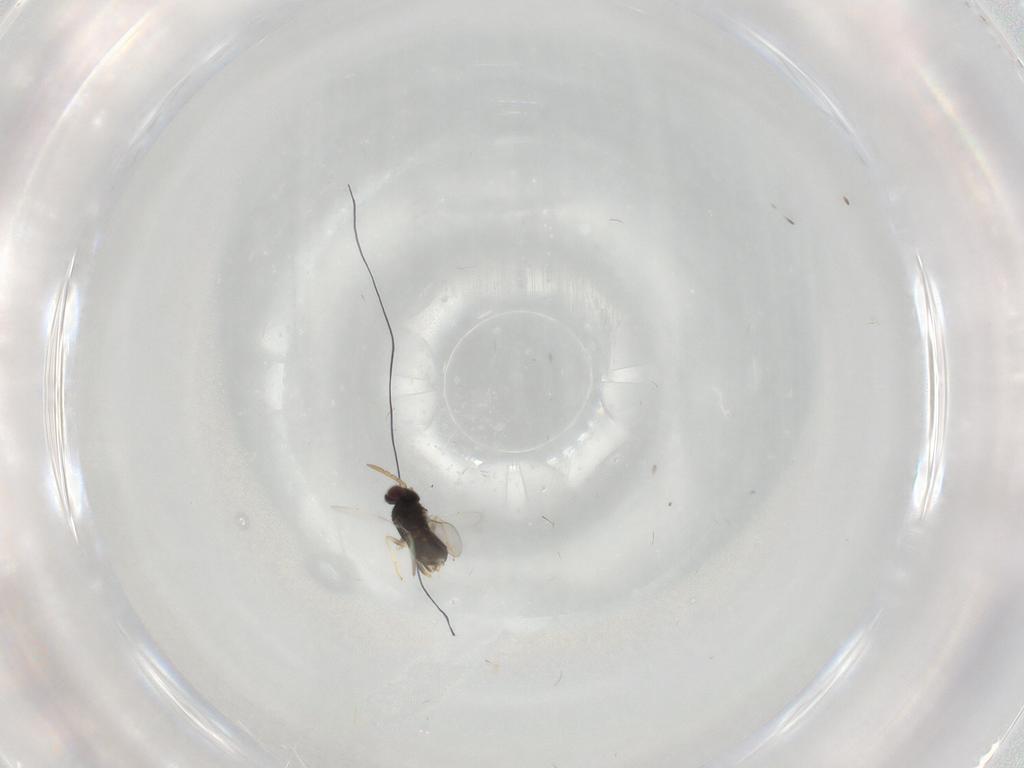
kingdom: Animalia
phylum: Arthropoda
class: Insecta
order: Hymenoptera
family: Aphelinidae
